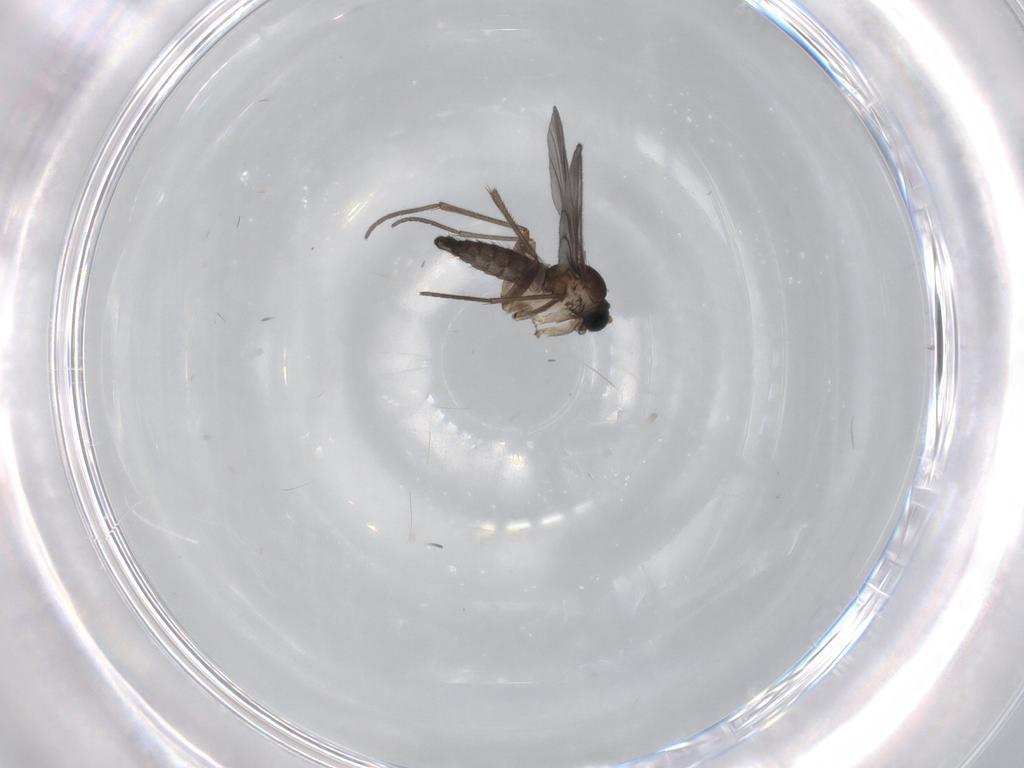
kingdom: Animalia
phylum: Arthropoda
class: Insecta
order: Diptera
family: Sciaridae
